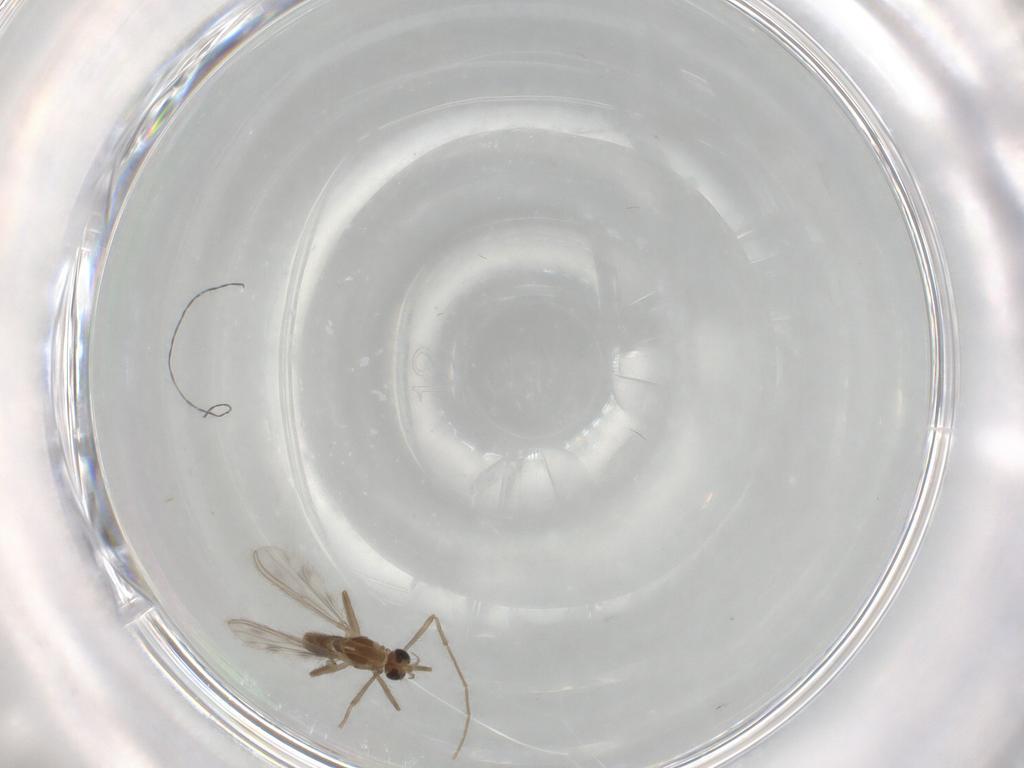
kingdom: Animalia
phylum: Arthropoda
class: Insecta
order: Diptera
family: Chironomidae
